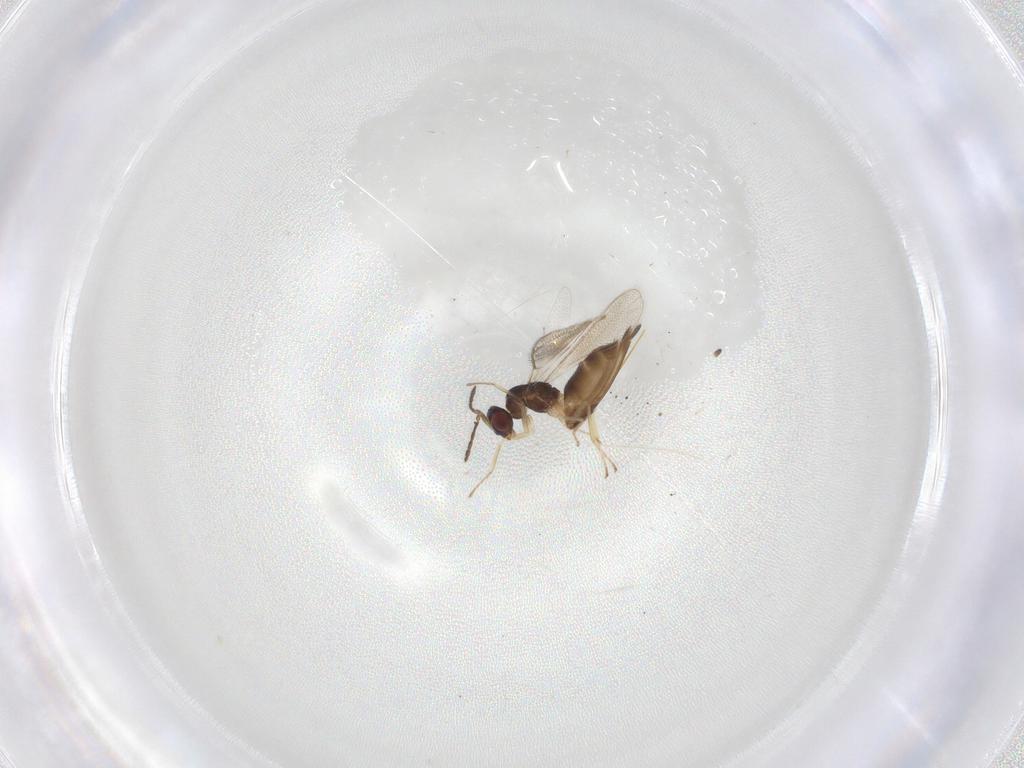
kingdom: Animalia
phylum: Arthropoda
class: Insecta
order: Hymenoptera
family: Eulophidae
